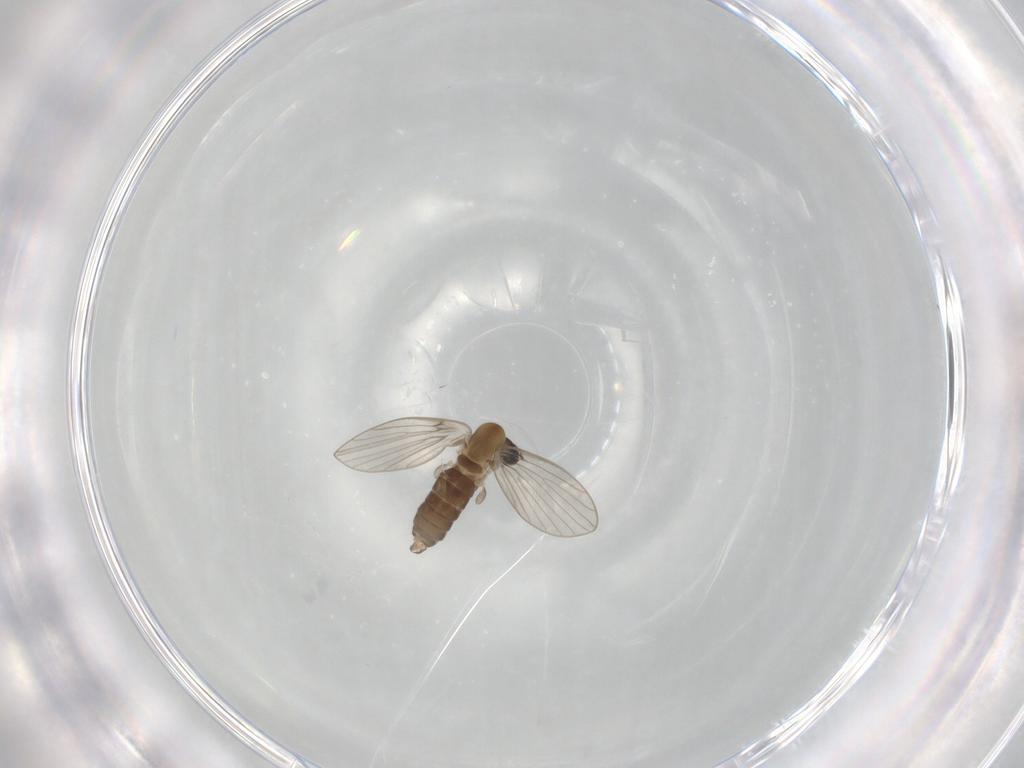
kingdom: Animalia
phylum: Arthropoda
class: Insecta
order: Diptera
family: Psychodidae
